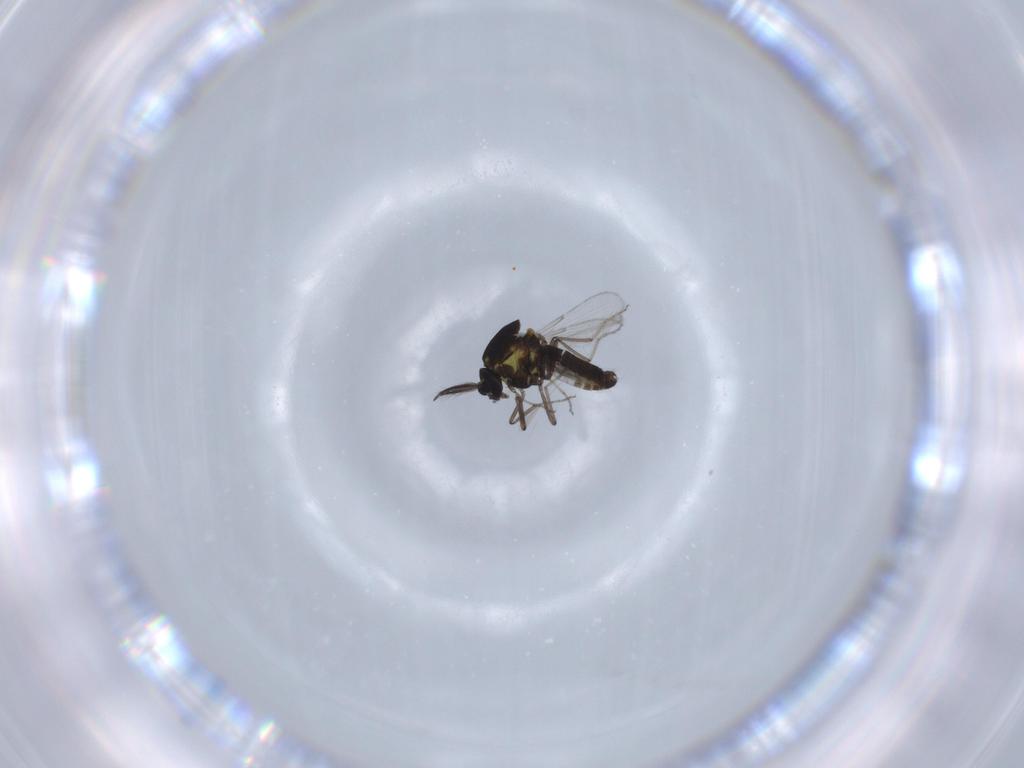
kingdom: Animalia
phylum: Arthropoda
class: Insecta
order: Diptera
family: Ceratopogonidae
